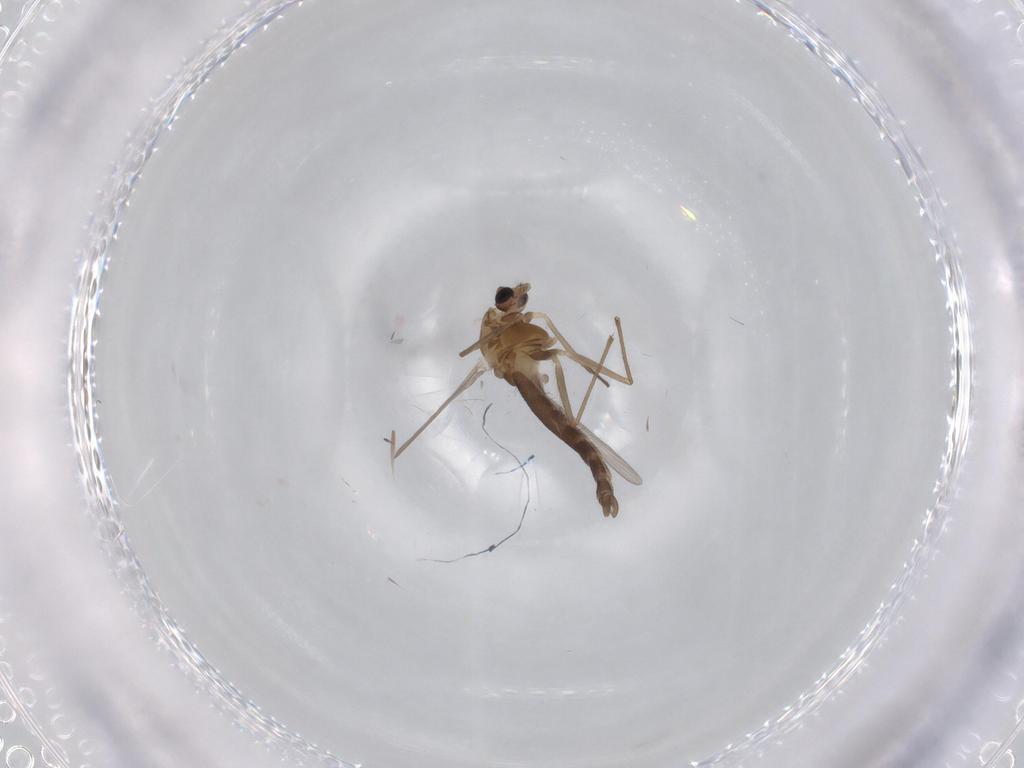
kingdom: Animalia
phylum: Arthropoda
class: Insecta
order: Diptera
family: Chironomidae
